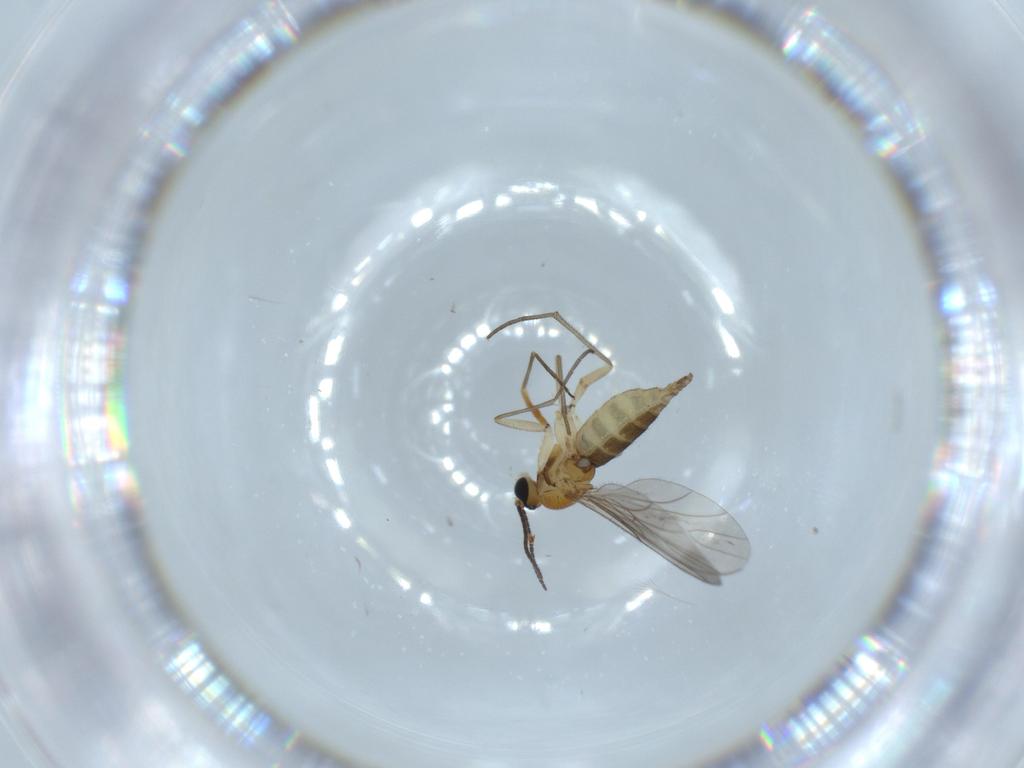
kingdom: Animalia
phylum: Arthropoda
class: Insecta
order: Diptera
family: Sciaridae
